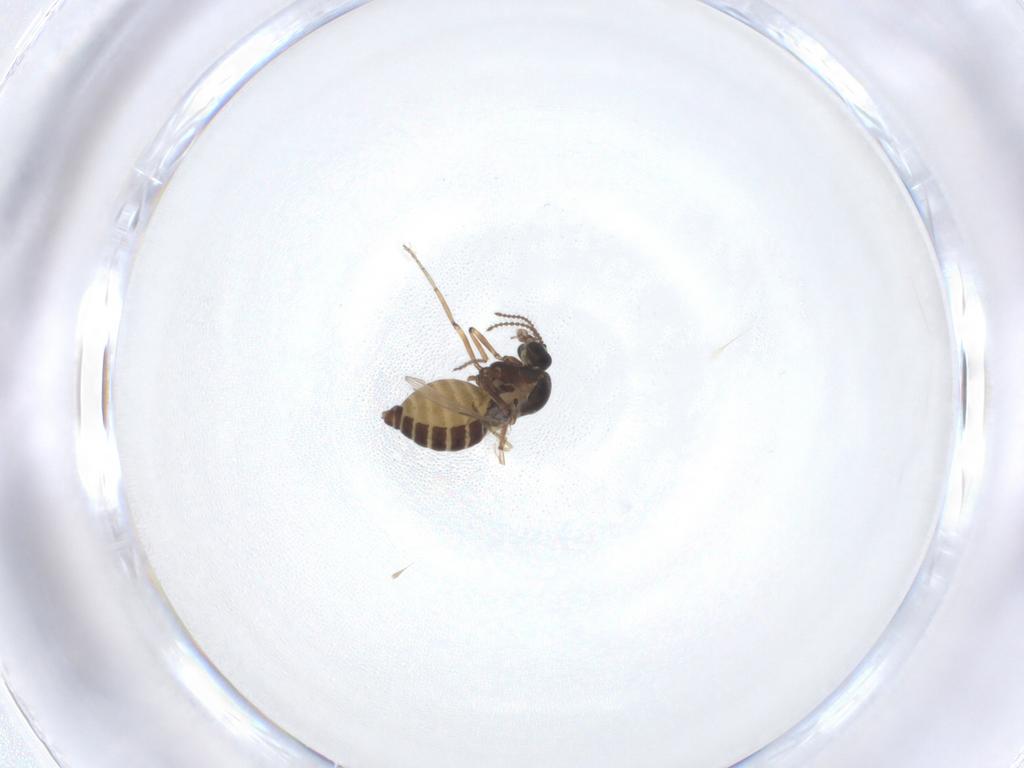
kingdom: Animalia
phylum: Arthropoda
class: Insecta
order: Diptera
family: Ceratopogonidae
